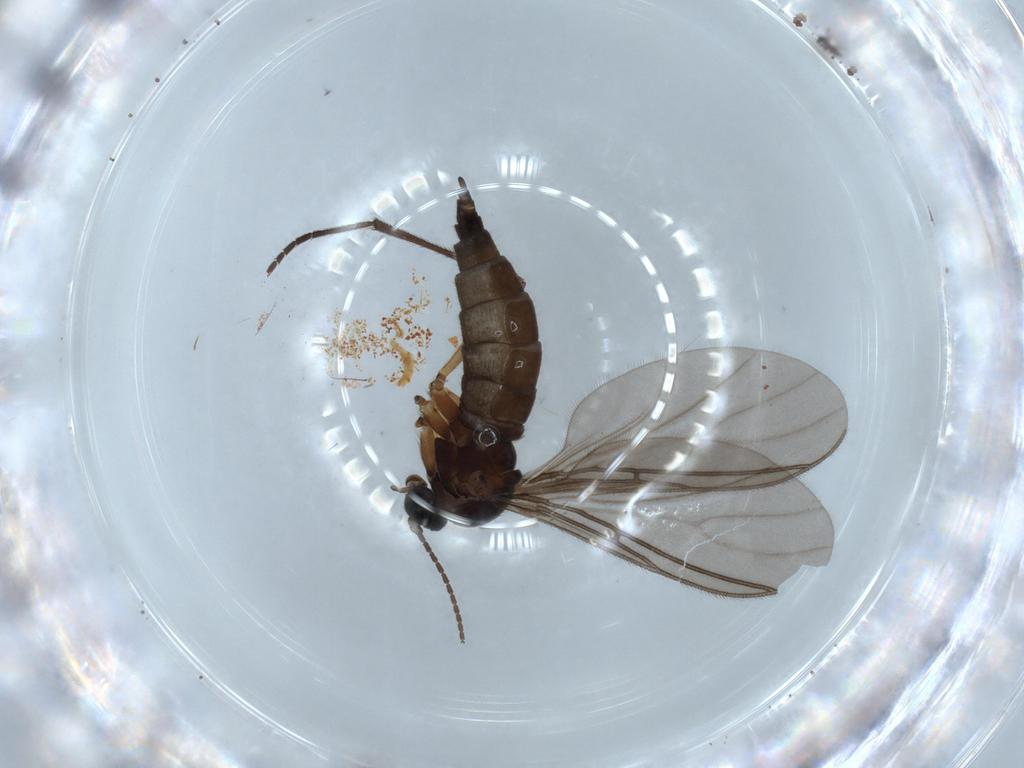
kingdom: Animalia
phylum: Arthropoda
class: Insecta
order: Diptera
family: Sciaridae
